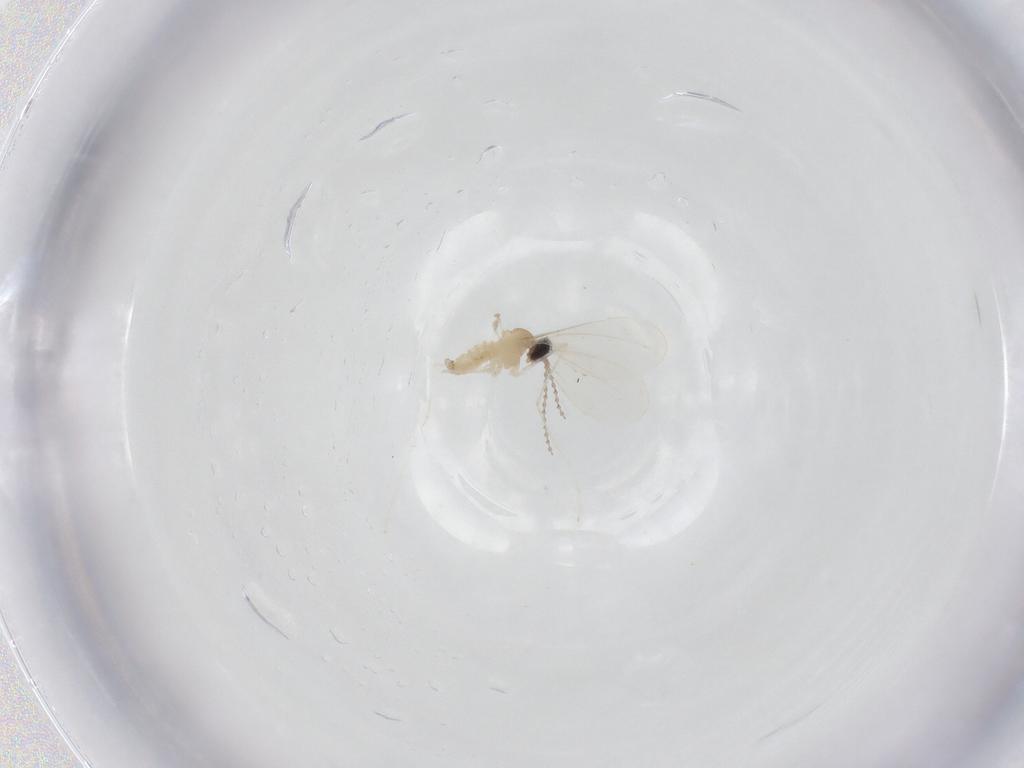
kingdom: Animalia
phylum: Arthropoda
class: Insecta
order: Diptera
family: Cecidomyiidae
